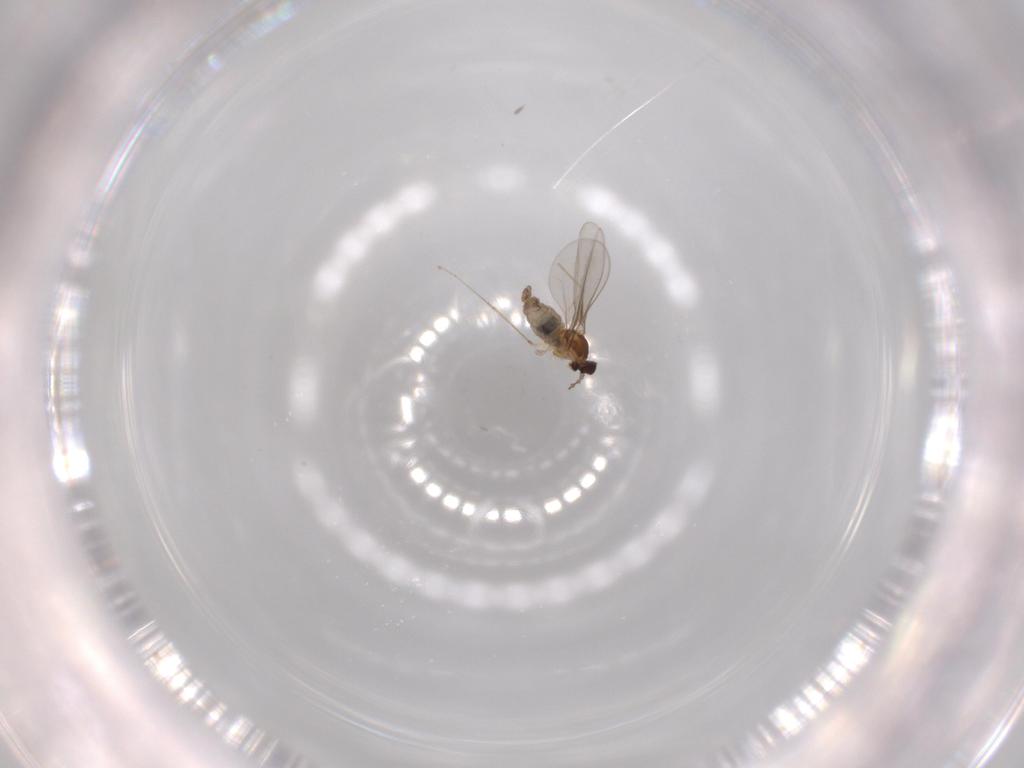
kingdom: Animalia
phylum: Arthropoda
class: Insecta
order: Diptera
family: Cecidomyiidae
